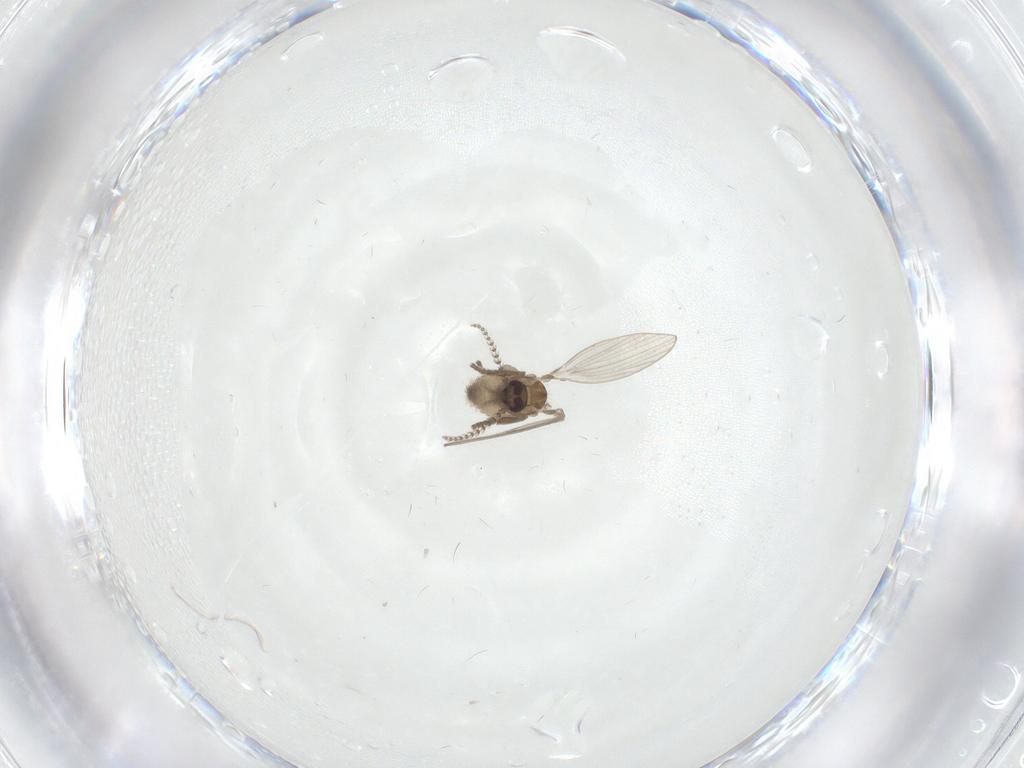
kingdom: Animalia
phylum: Arthropoda
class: Insecta
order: Diptera
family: Psychodidae
